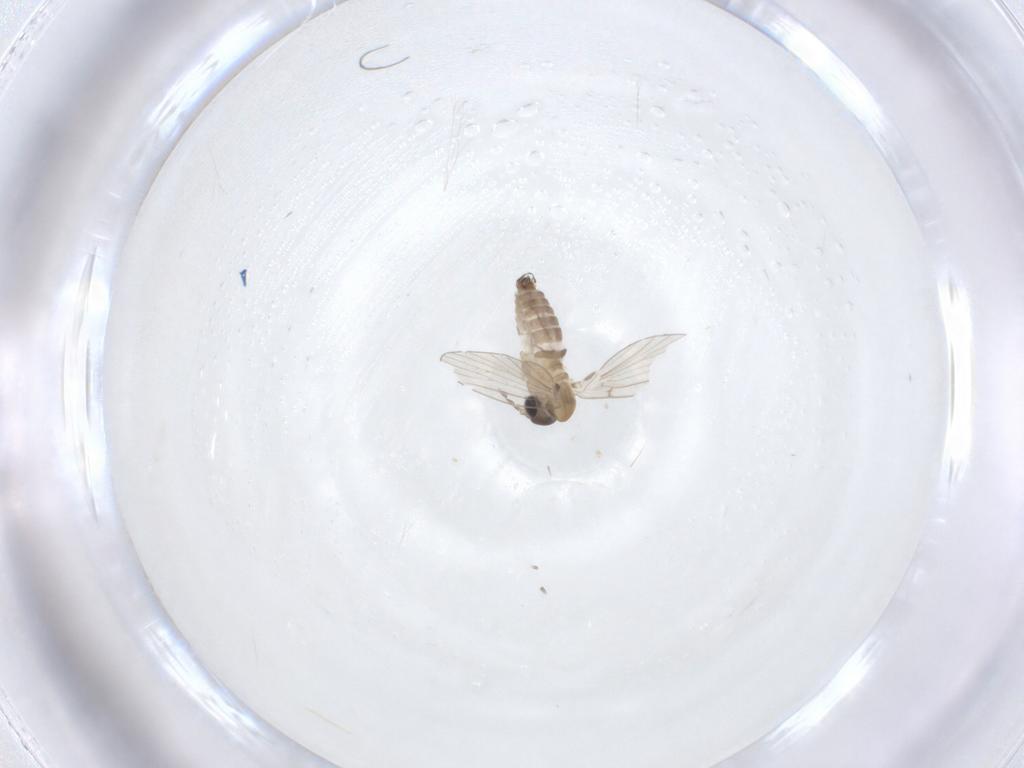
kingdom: Animalia
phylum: Arthropoda
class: Insecta
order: Diptera
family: Psychodidae
